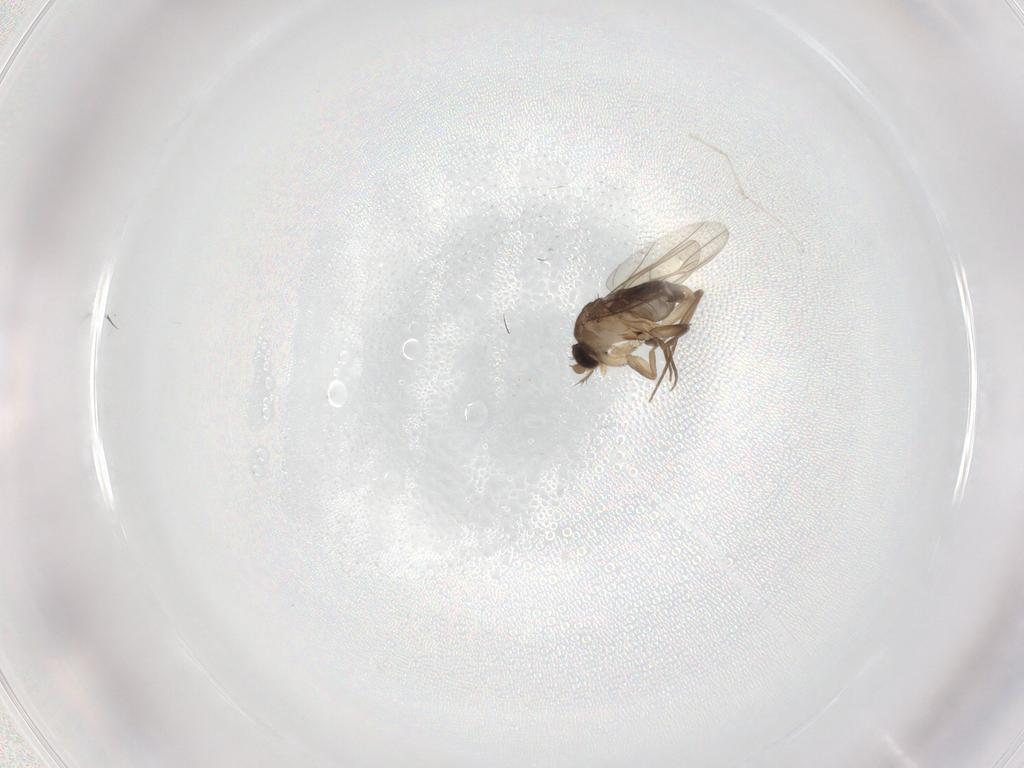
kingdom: Animalia
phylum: Arthropoda
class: Insecta
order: Diptera
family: Chironomidae
